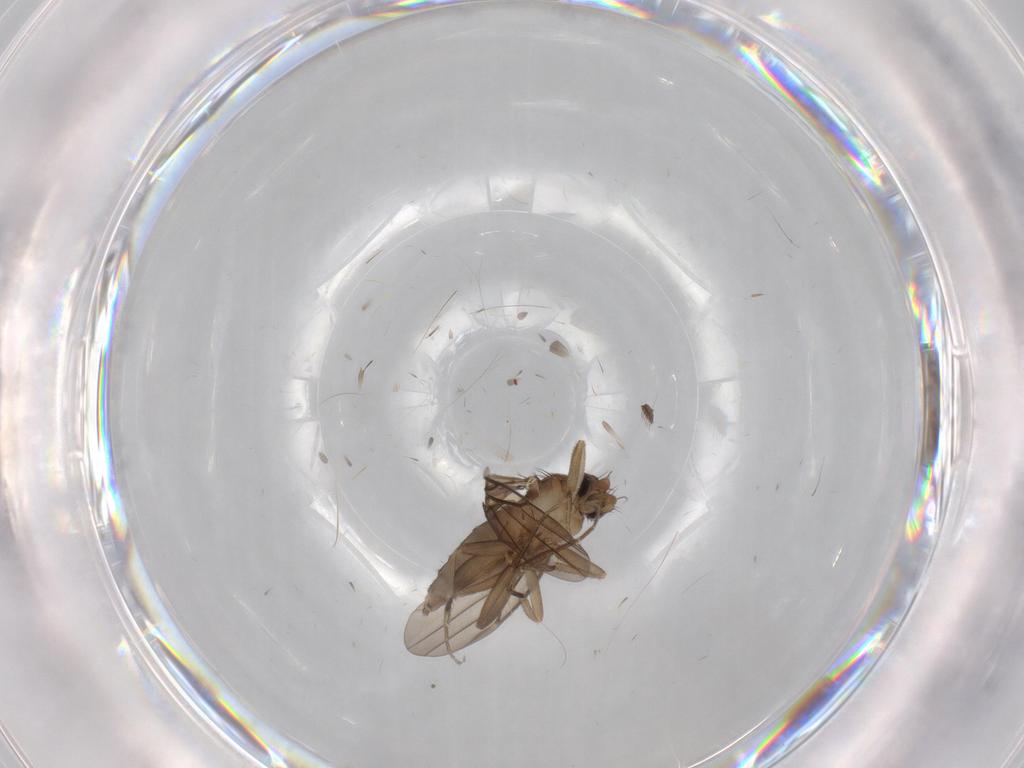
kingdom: Animalia
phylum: Arthropoda
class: Insecta
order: Diptera
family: Phoridae
